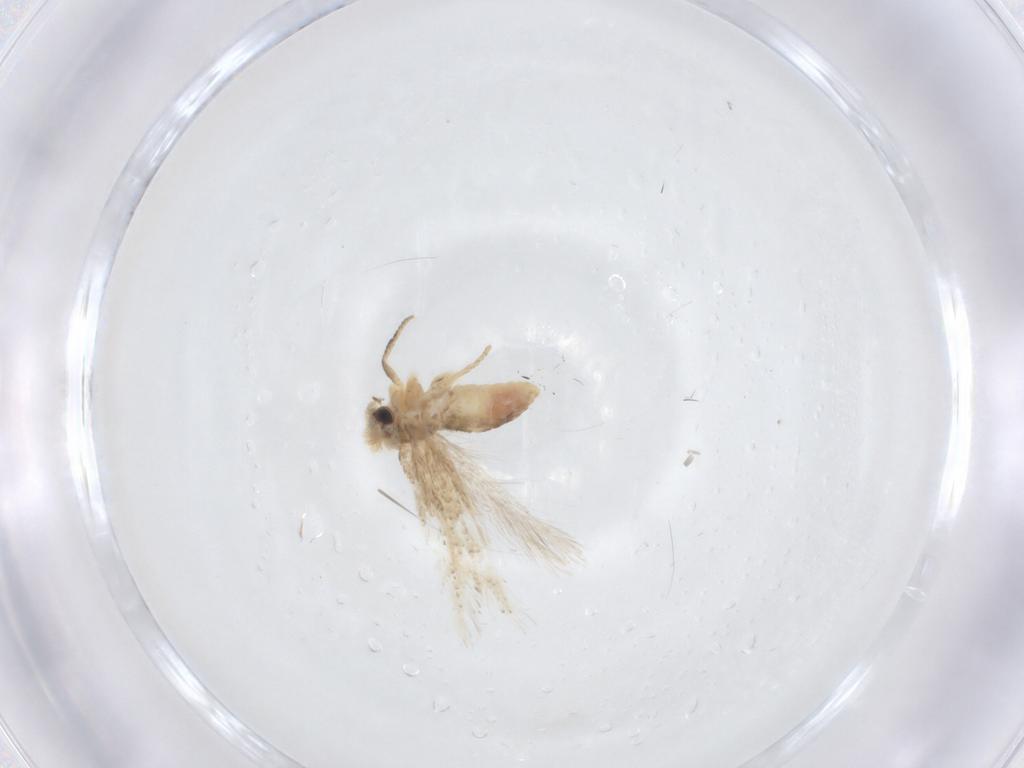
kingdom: Animalia
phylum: Arthropoda
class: Insecta
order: Lepidoptera
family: Nepticulidae
